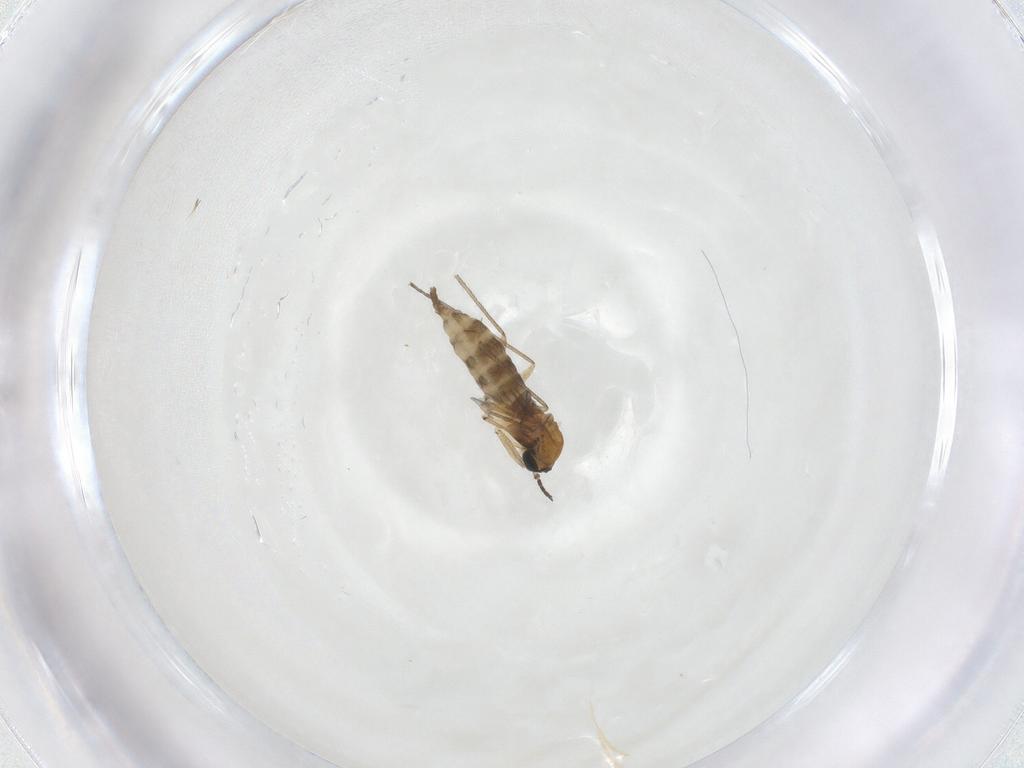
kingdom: Animalia
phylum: Arthropoda
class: Insecta
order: Diptera
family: Sciaridae
